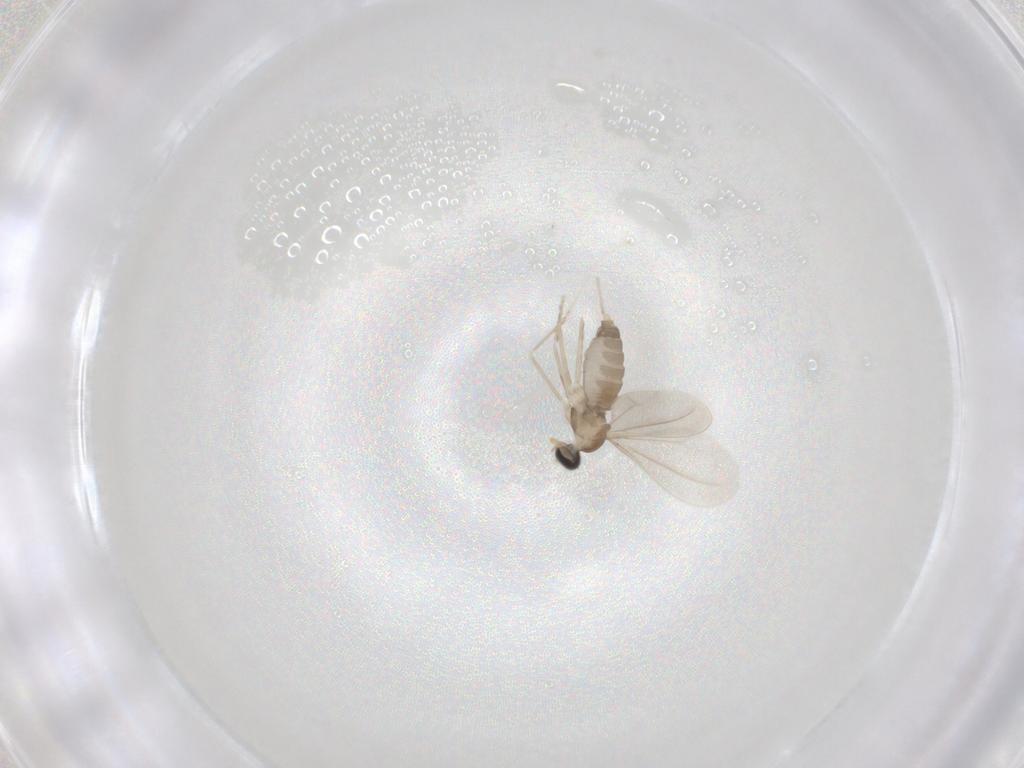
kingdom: Animalia
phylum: Arthropoda
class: Insecta
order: Diptera
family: Cecidomyiidae
